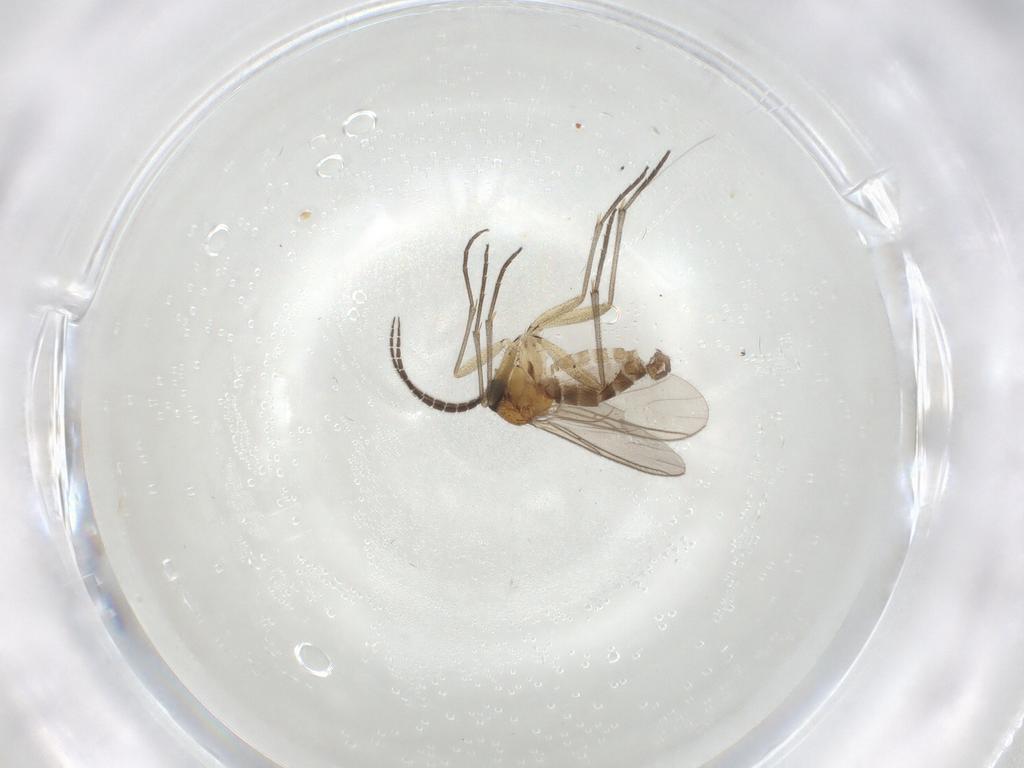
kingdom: Animalia
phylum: Arthropoda
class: Insecta
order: Diptera
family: Sciaridae
